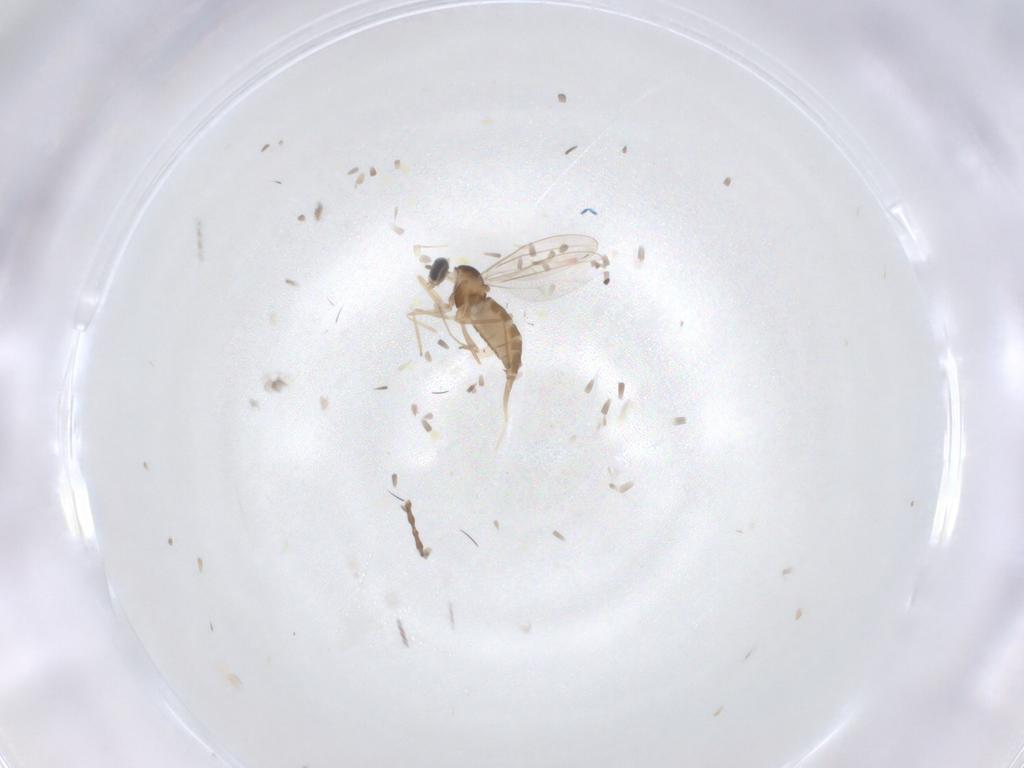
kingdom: Animalia
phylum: Arthropoda
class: Insecta
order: Diptera
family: Cecidomyiidae
